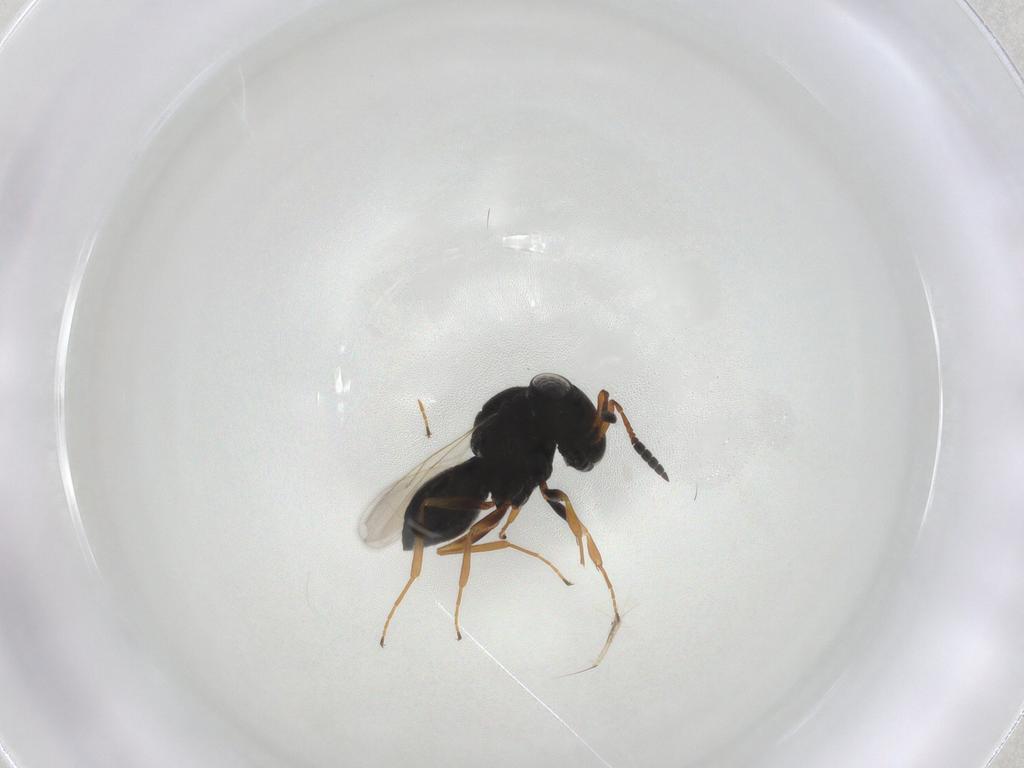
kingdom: Animalia
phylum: Arthropoda
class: Insecta
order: Hymenoptera
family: Scelionidae
